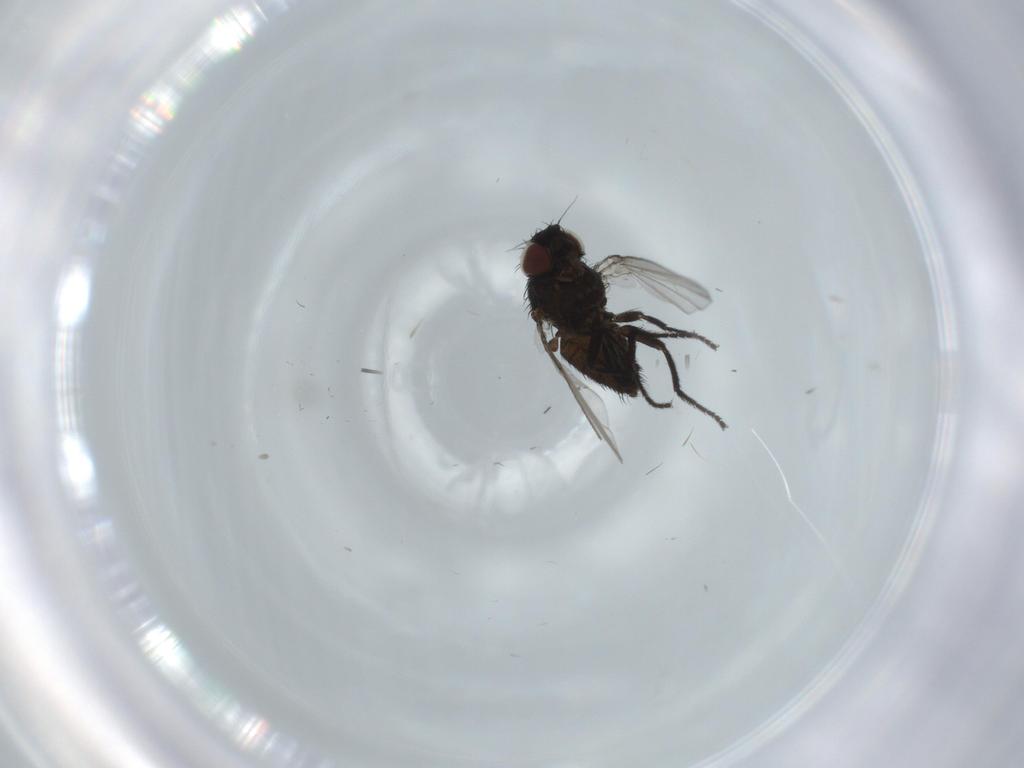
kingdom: Animalia
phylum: Arthropoda
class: Insecta
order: Diptera
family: Milichiidae
